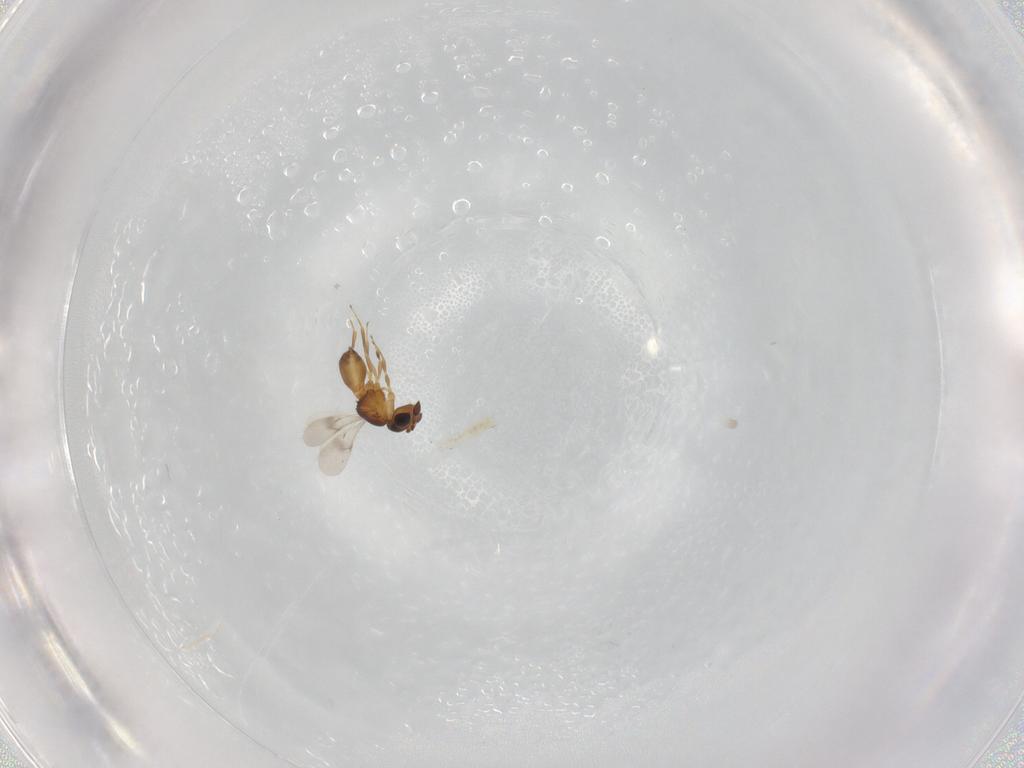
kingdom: Animalia
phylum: Arthropoda
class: Insecta
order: Hymenoptera
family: Scelionidae
